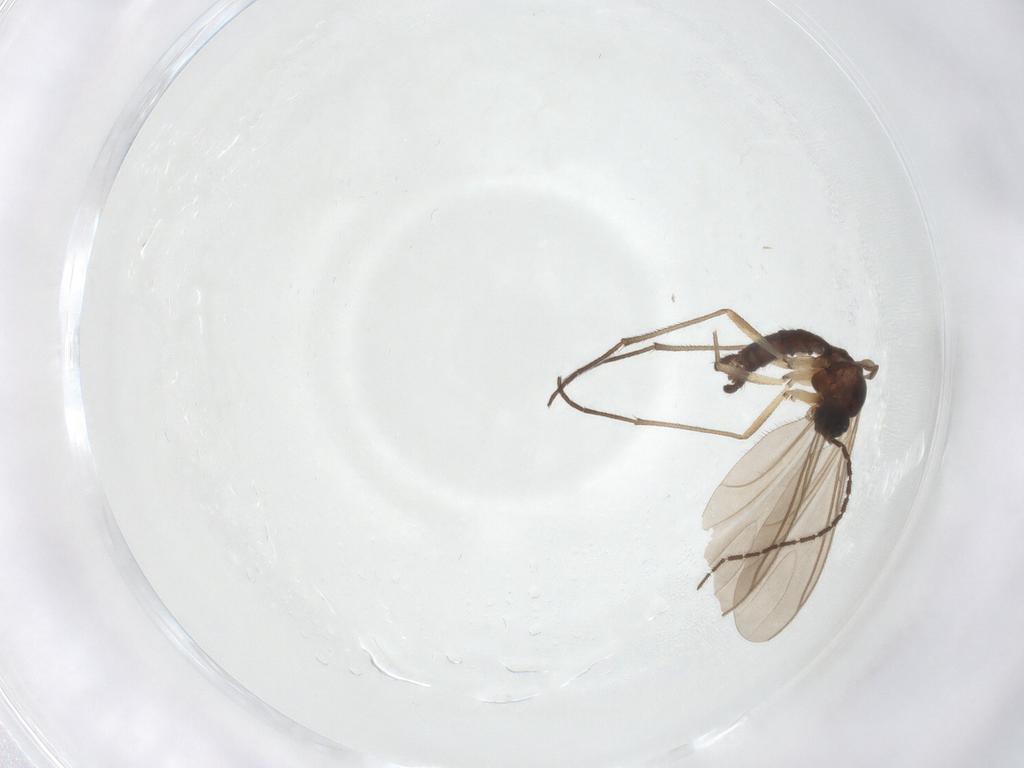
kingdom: Animalia
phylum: Arthropoda
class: Insecta
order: Diptera
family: Sciaridae
